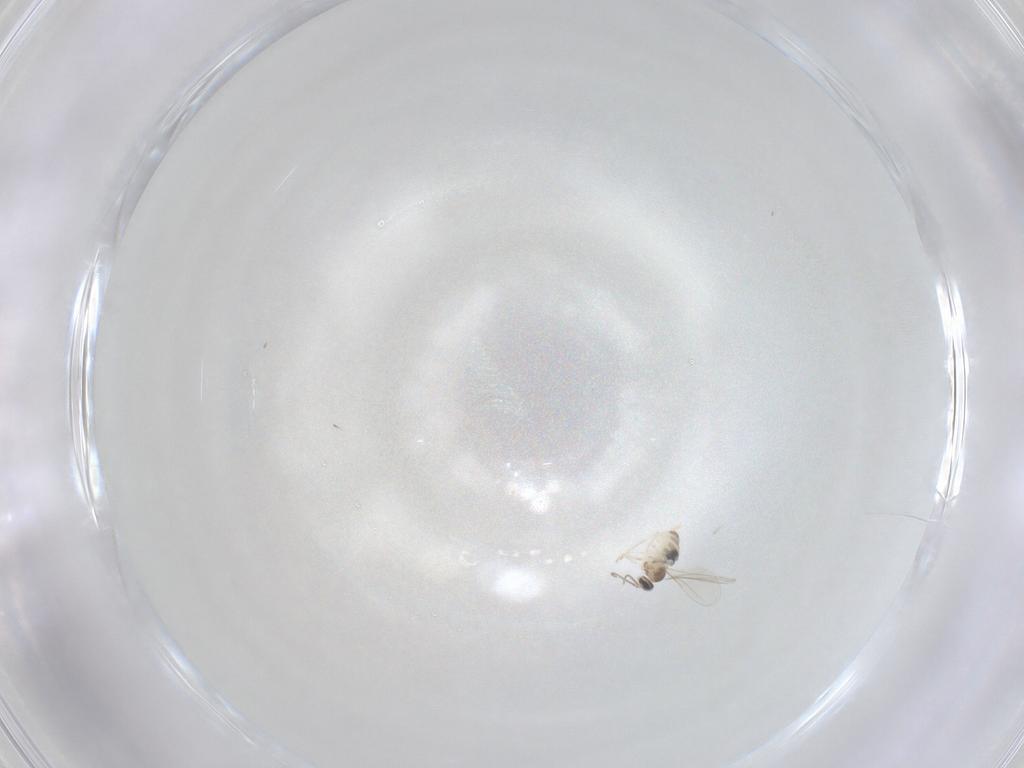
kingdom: Animalia
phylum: Arthropoda
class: Insecta
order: Diptera
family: Cecidomyiidae
